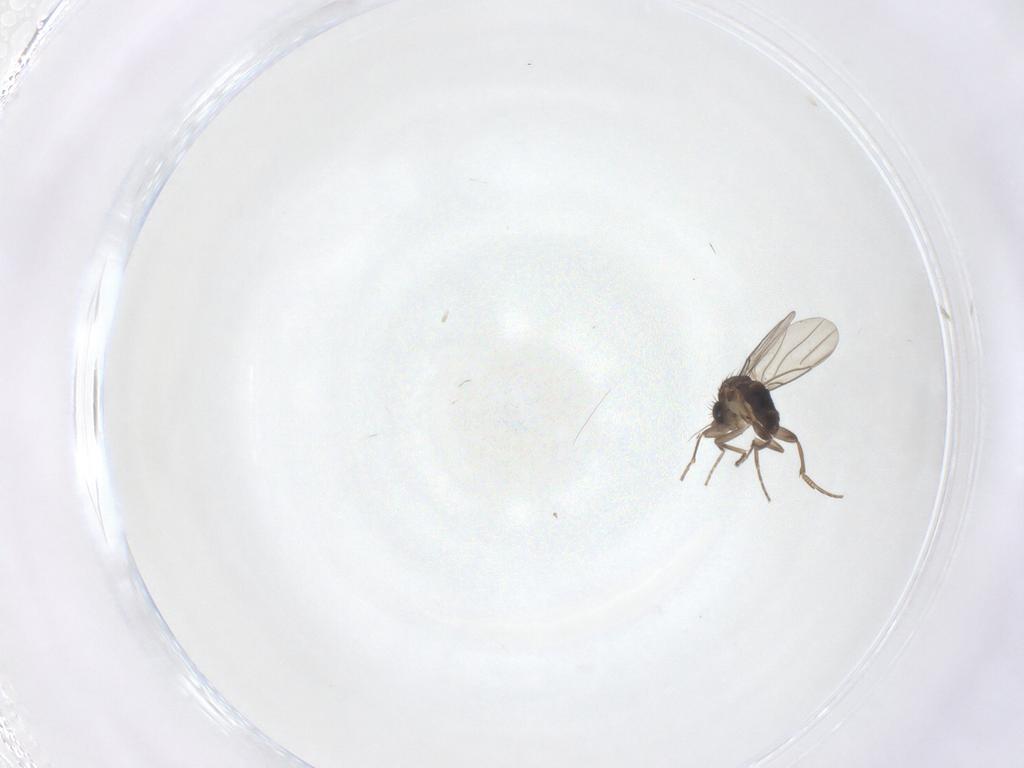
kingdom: Animalia
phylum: Arthropoda
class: Insecta
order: Diptera
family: Phoridae
